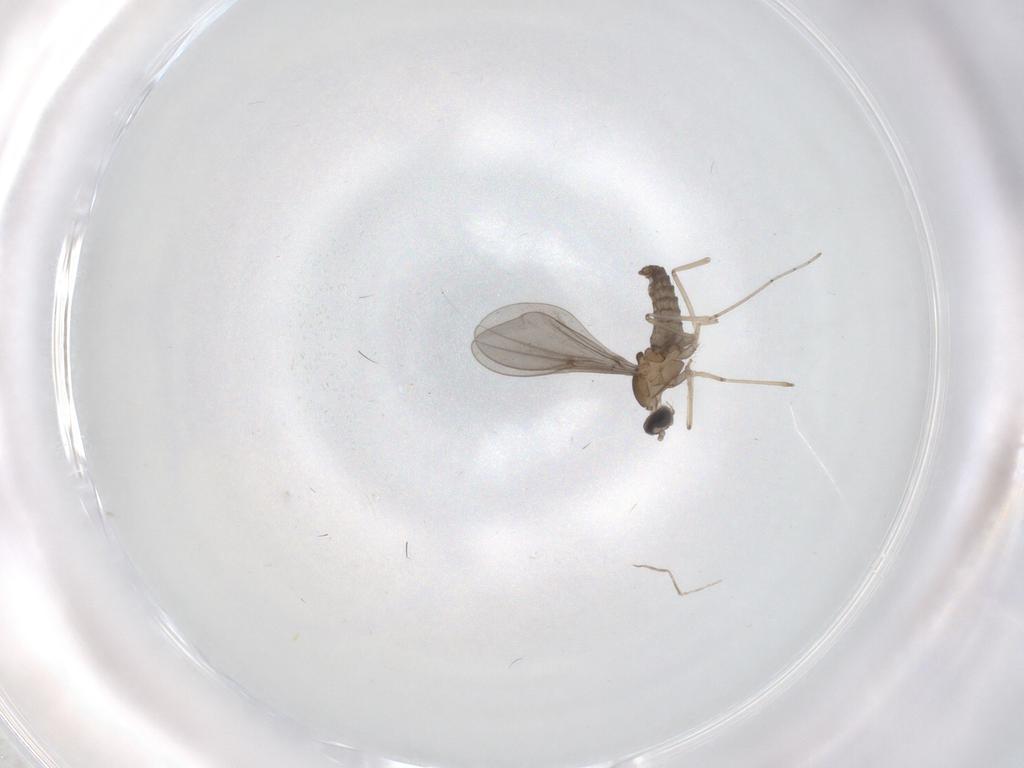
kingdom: Animalia
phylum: Arthropoda
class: Insecta
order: Diptera
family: Cecidomyiidae
